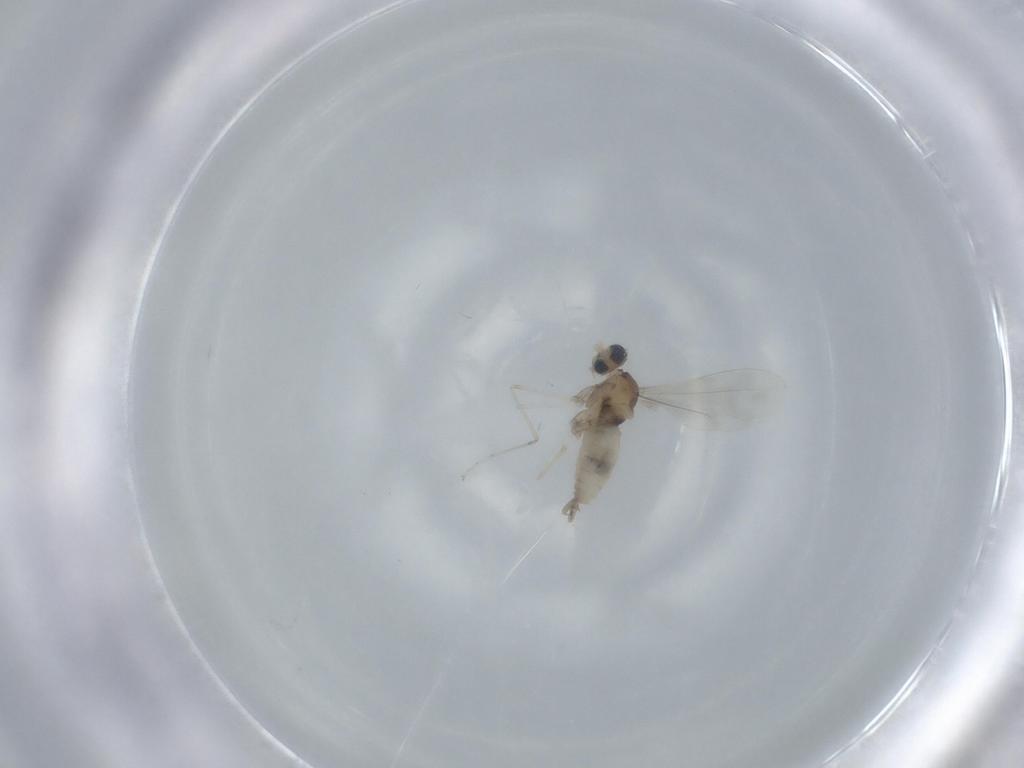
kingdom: Animalia
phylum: Arthropoda
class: Insecta
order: Diptera
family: Cecidomyiidae
